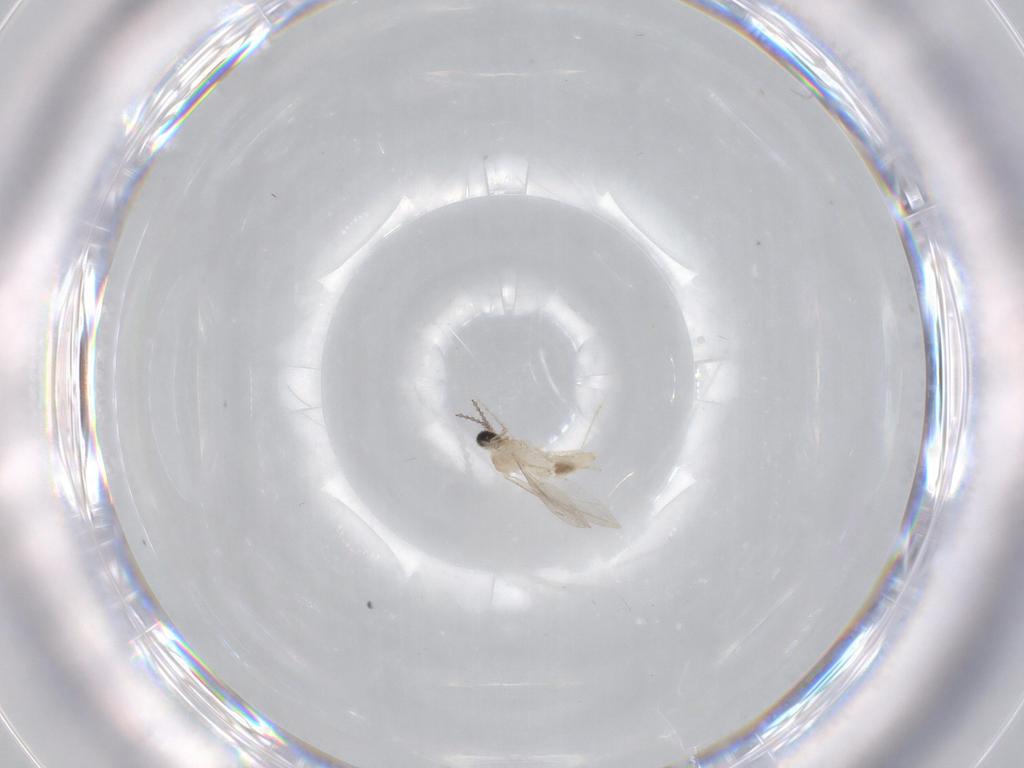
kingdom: Animalia
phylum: Arthropoda
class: Insecta
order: Diptera
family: Cecidomyiidae
